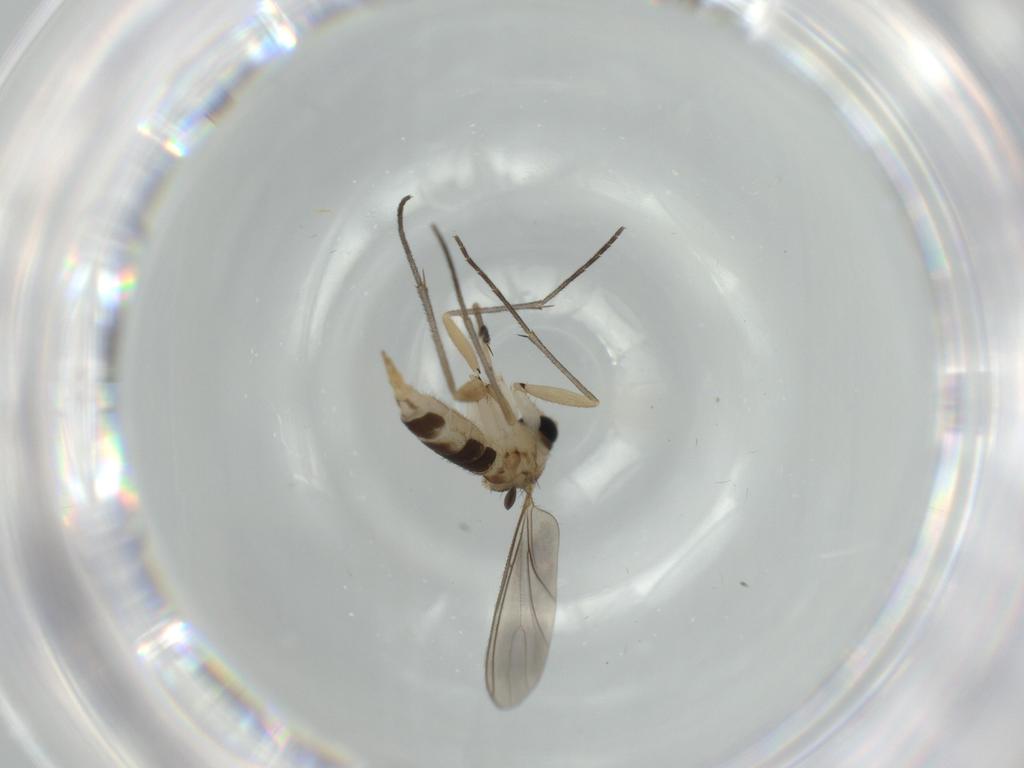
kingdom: Animalia
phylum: Arthropoda
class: Insecta
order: Diptera
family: Sciaridae
